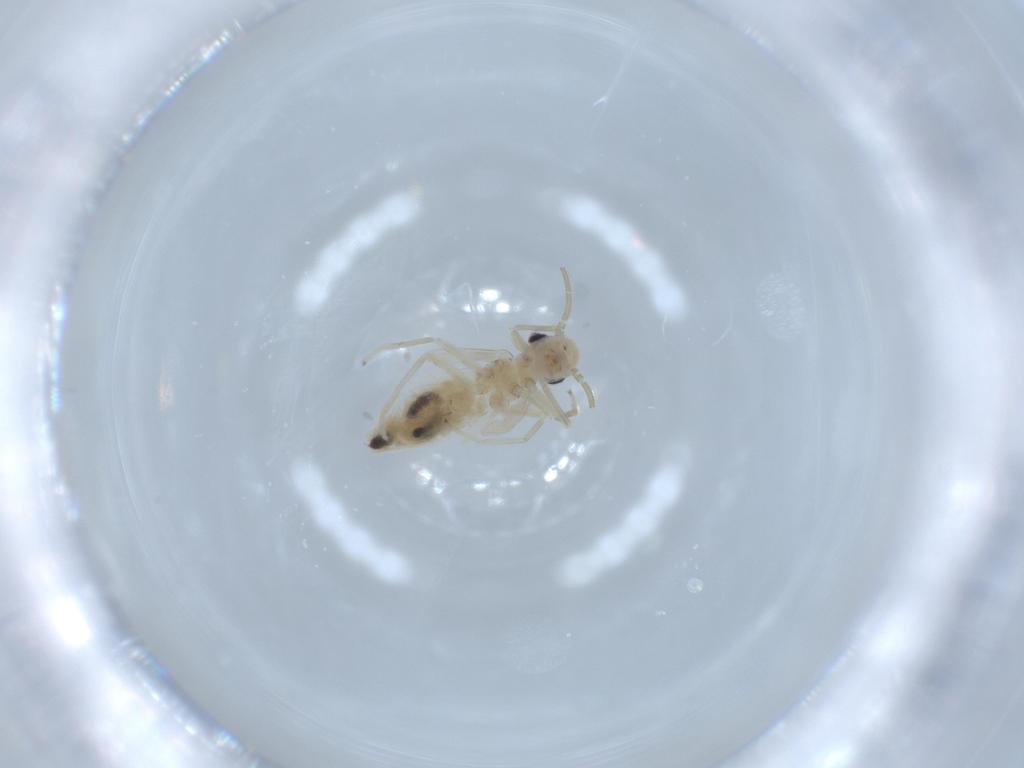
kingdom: Animalia
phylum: Arthropoda
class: Insecta
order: Psocodea
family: Caeciliusidae
